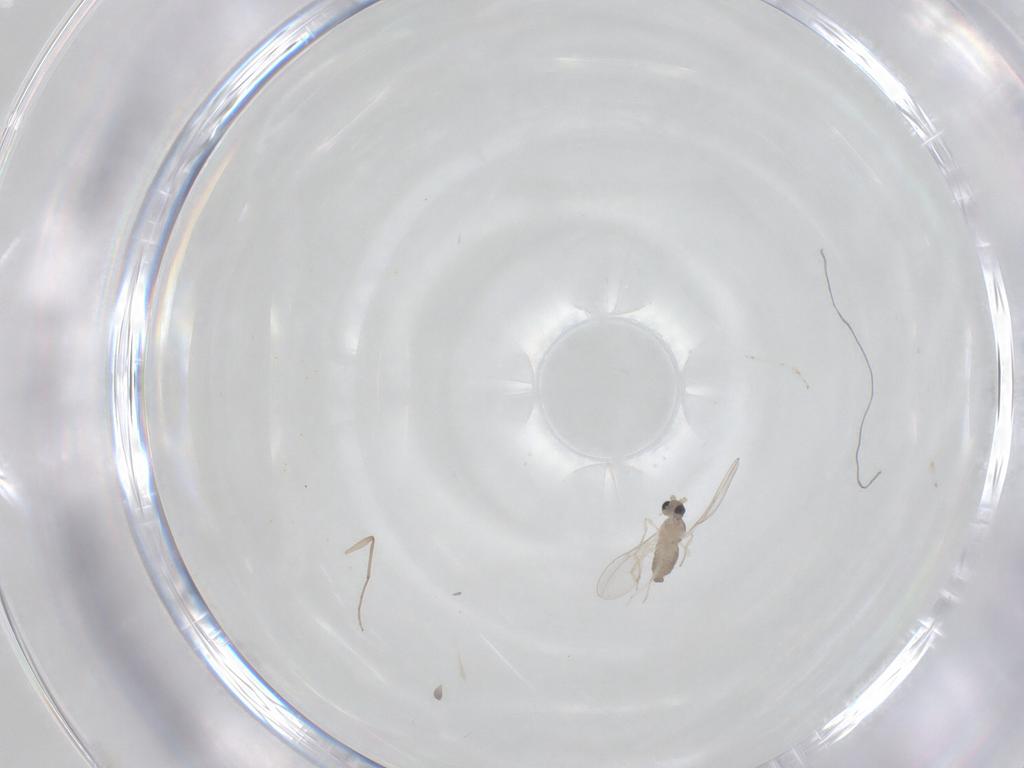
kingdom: Animalia
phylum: Arthropoda
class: Insecta
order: Diptera
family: Chironomidae
